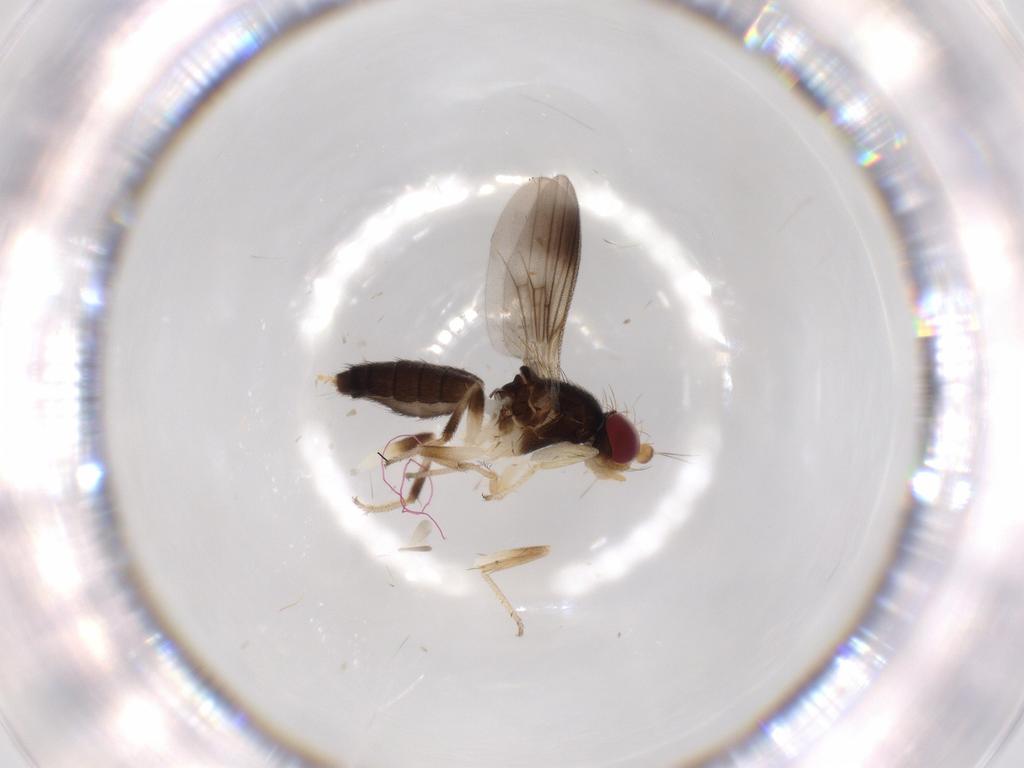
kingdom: Animalia
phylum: Arthropoda
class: Insecta
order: Diptera
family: Clusiidae
